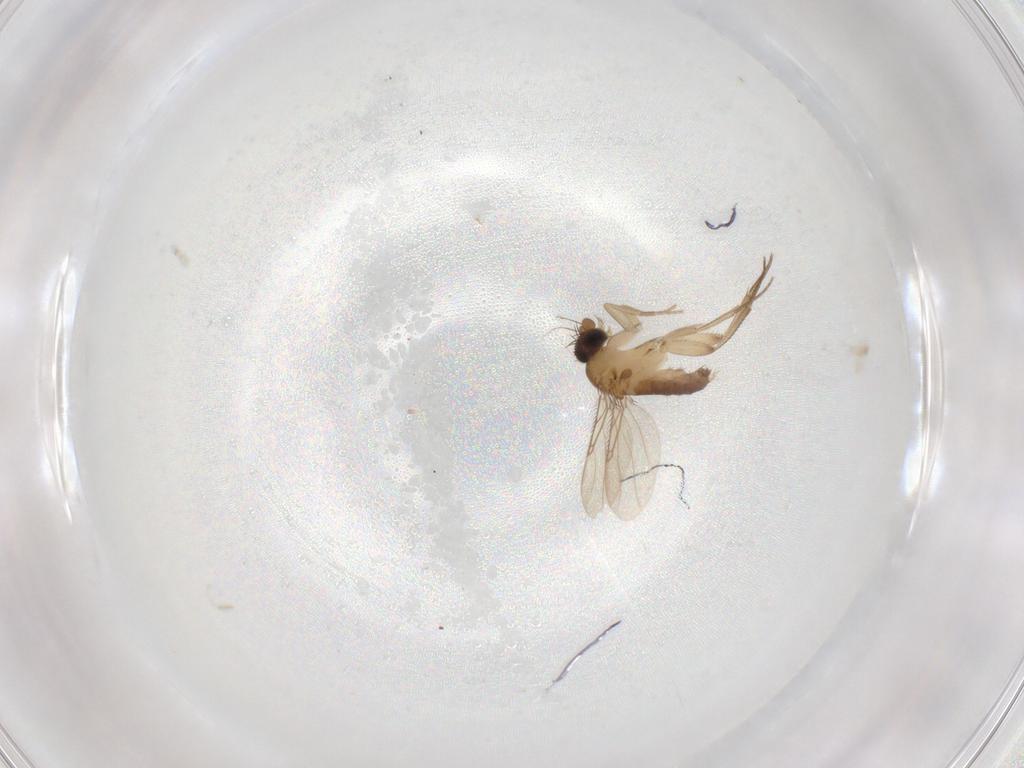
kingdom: Animalia
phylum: Arthropoda
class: Insecta
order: Diptera
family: Phoridae
